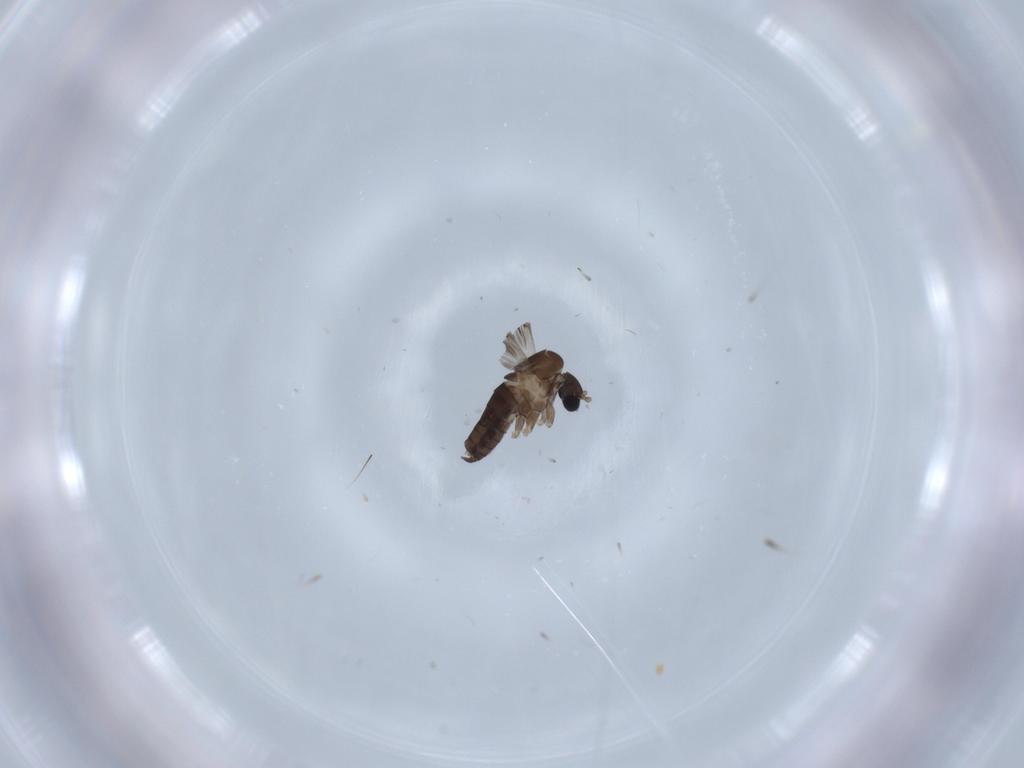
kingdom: Animalia
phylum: Arthropoda
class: Insecta
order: Diptera
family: Psychodidae
